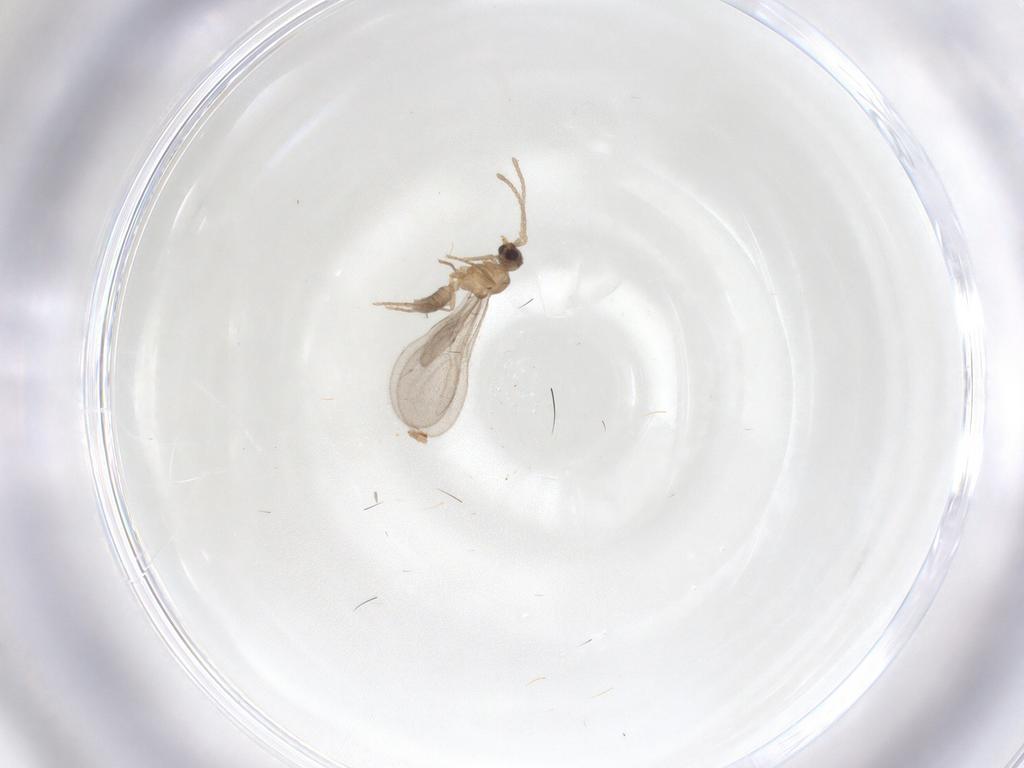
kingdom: Animalia
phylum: Arthropoda
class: Insecta
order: Hymenoptera
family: Formicidae
